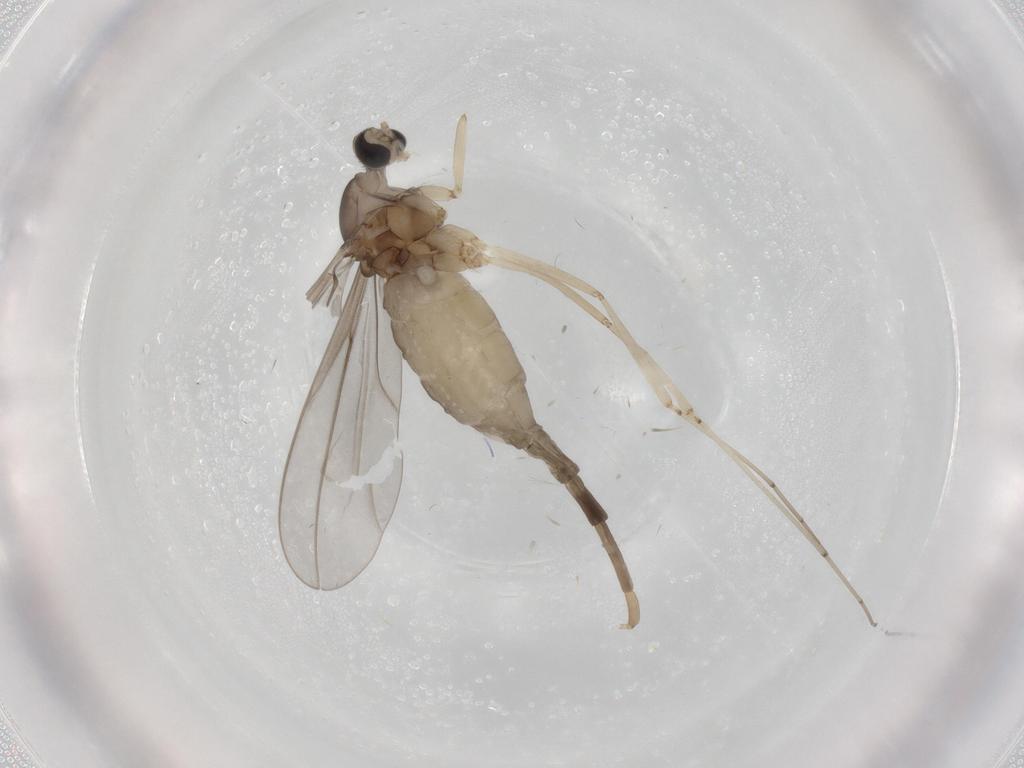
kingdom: Animalia
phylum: Arthropoda
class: Insecta
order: Diptera
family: Cecidomyiidae
